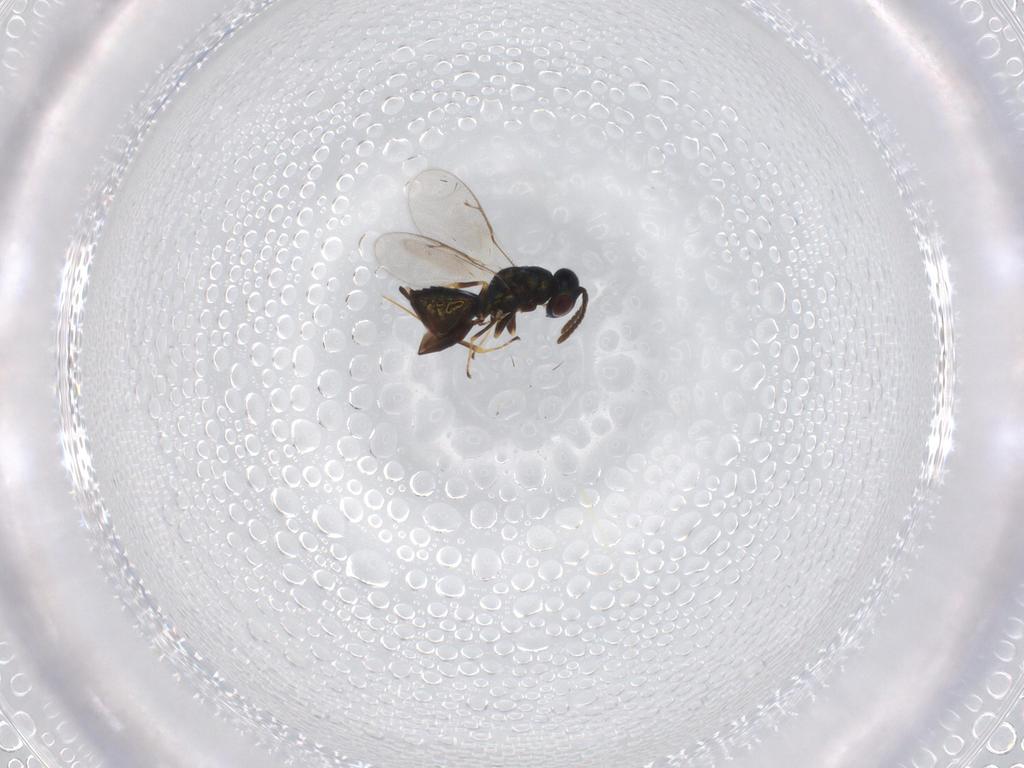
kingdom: Animalia
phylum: Arthropoda
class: Insecta
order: Hymenoptera
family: Pteromalidae
